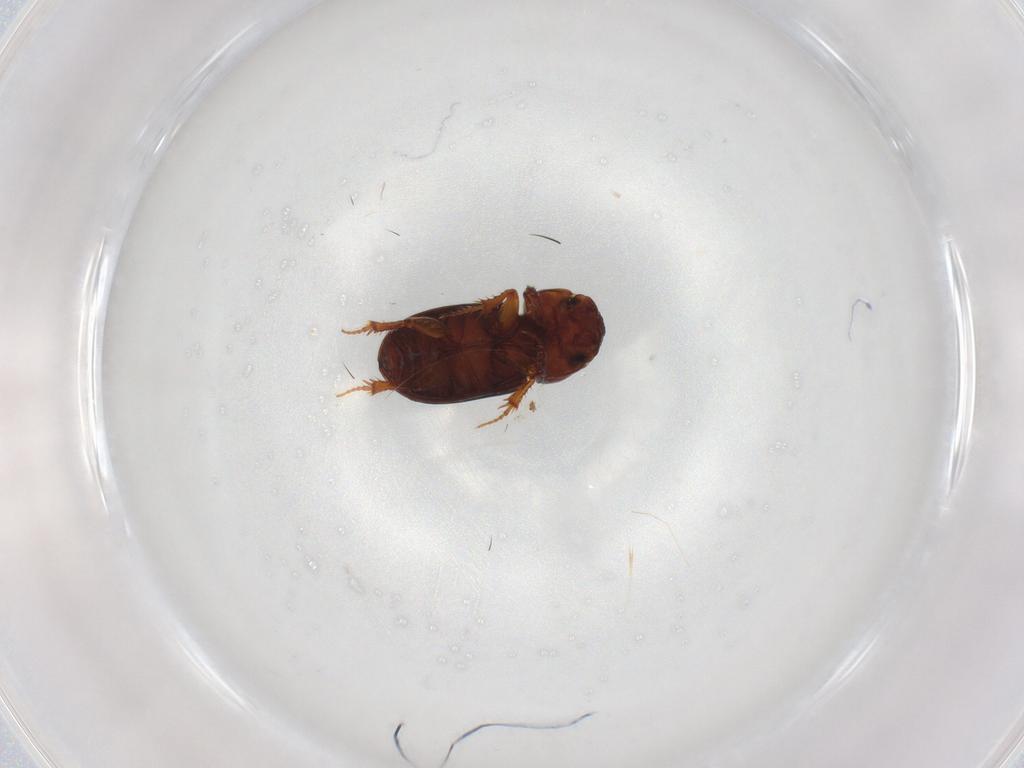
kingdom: Animalia
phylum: Arthropoda
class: Insecta
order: Coleoptera
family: Scarabaeidae
